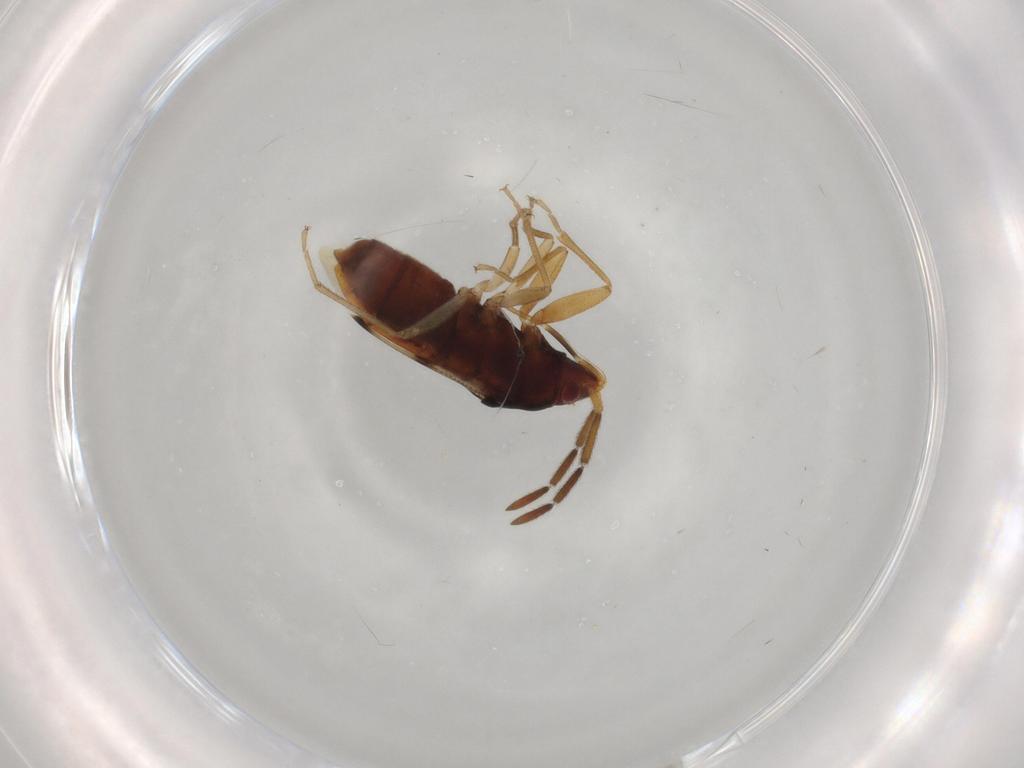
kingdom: Animalia
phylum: Arthropoda
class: Insecta
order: Hemiptera
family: Rhyparochromidae
